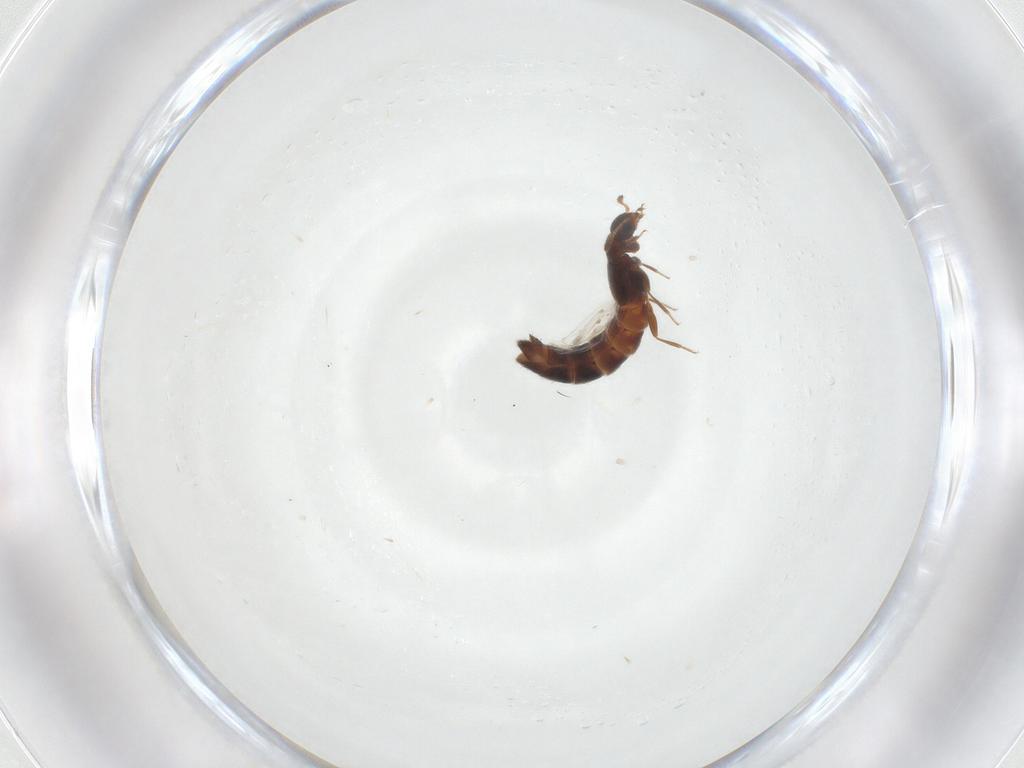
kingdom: Animalia
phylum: Arthropoda
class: Insecta
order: Coleoptera
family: Staphylinidae
